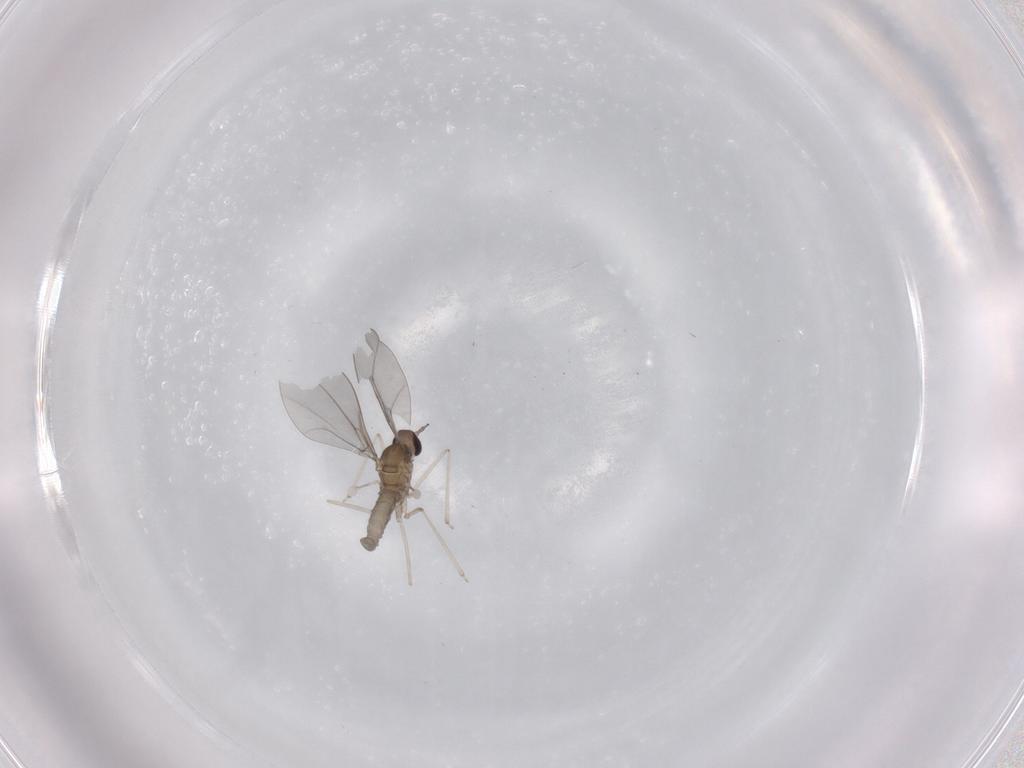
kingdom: Animalia
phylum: Arthropoda
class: Insecta
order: Diptera
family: Cecidomyiidae
